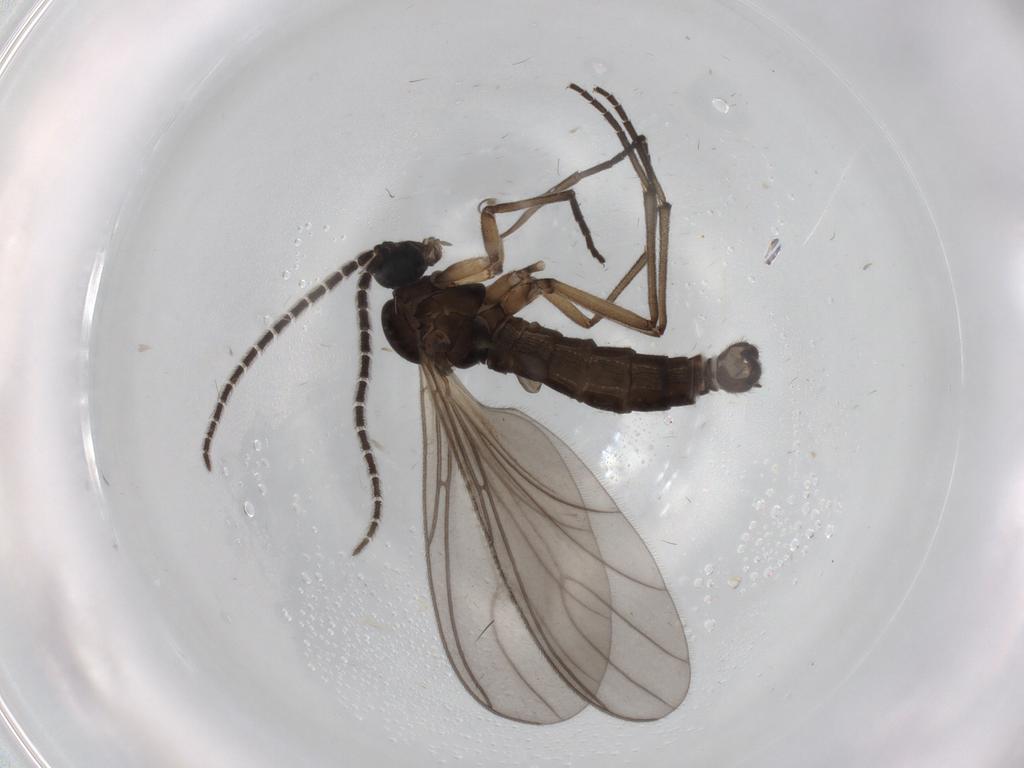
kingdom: Animalia
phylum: Arthropoda
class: Insecta
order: Diptera
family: Sciaridae
